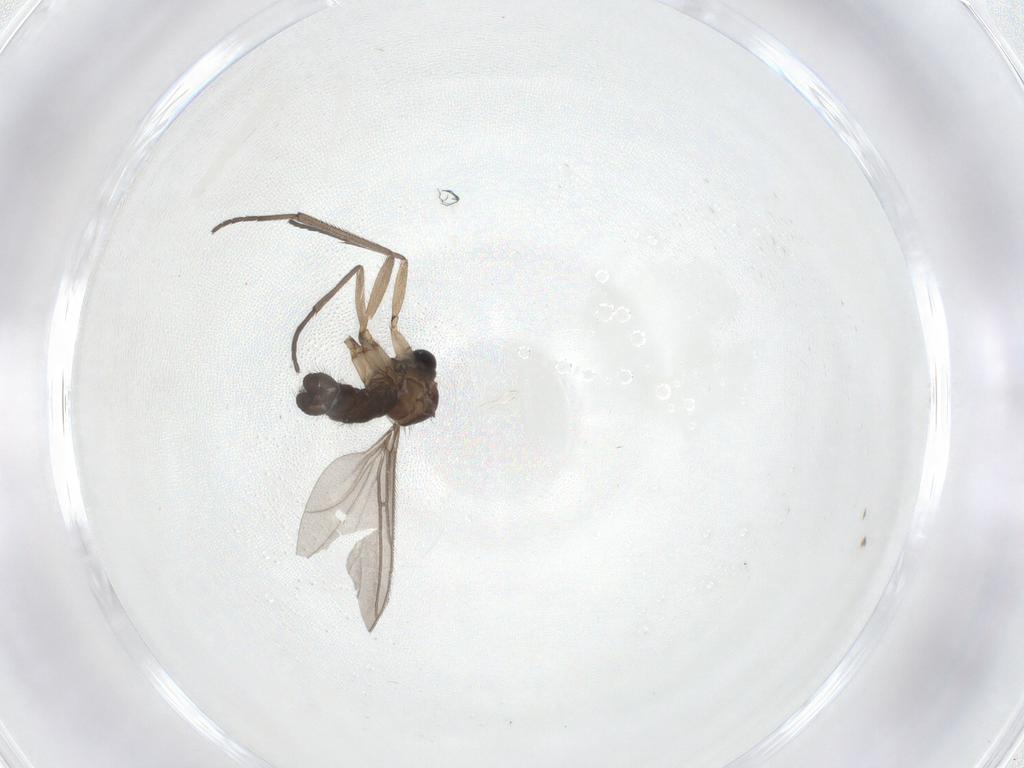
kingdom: Animalia
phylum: Arthropoda
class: Insecta
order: Diptera
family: Sciaridae
